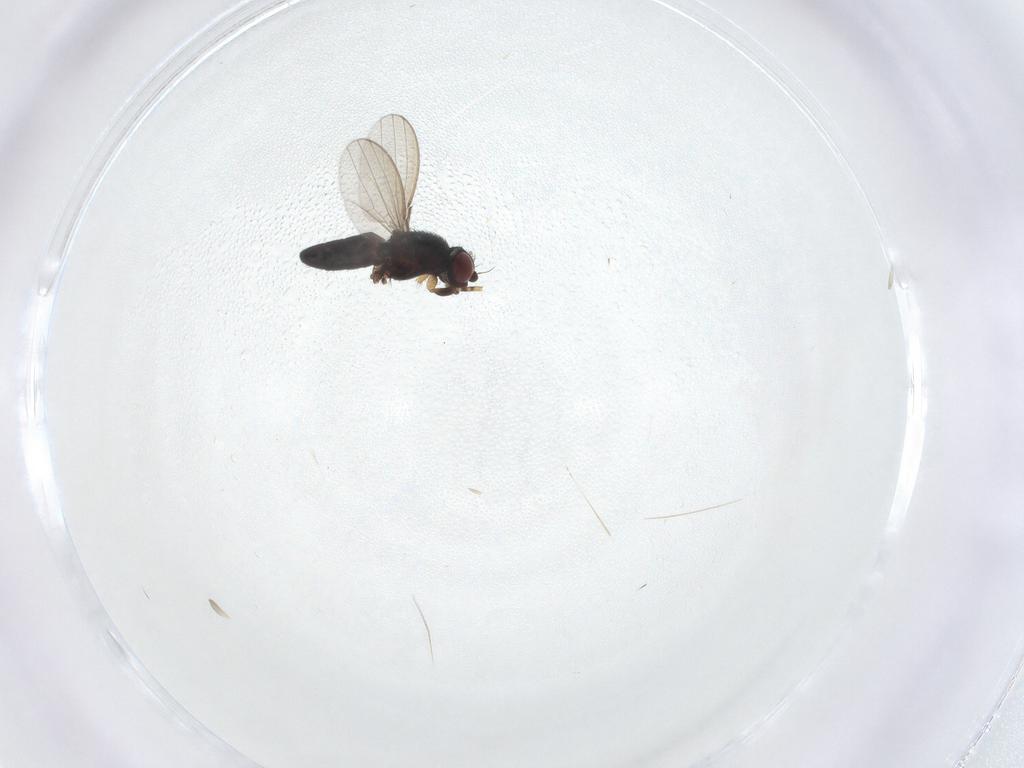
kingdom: Animalia
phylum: Arthropoda
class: Insecta
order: Diptera
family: Milichiidae
